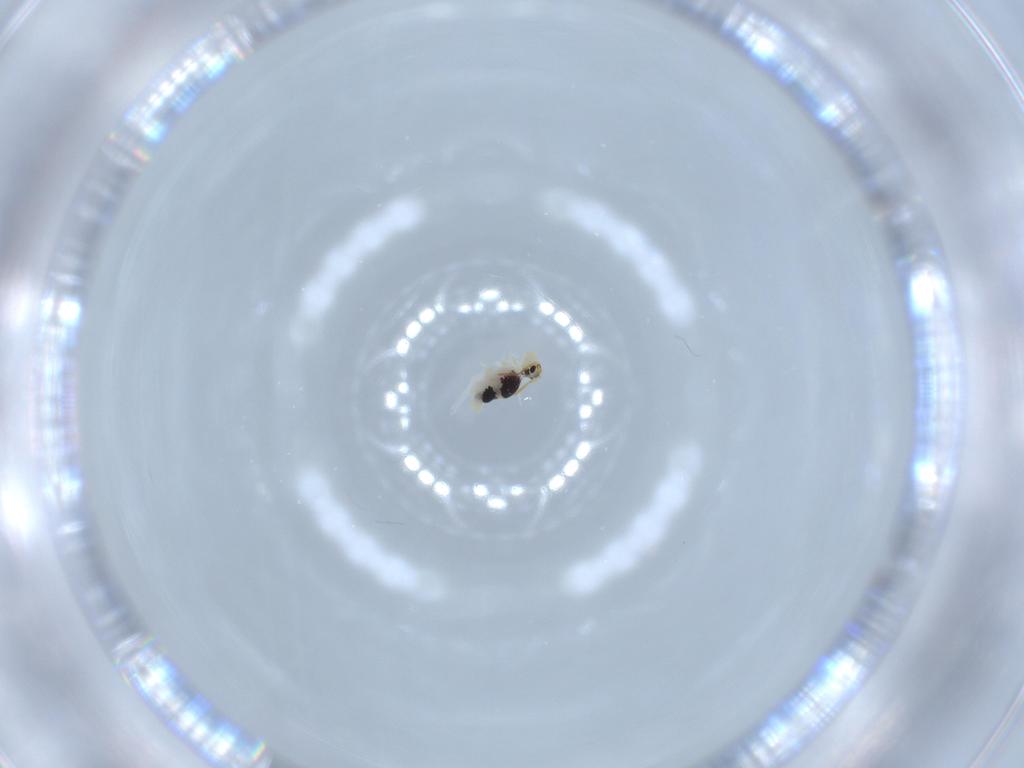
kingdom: Animalia
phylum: Arthropoda
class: Collembola
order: Symphypleona
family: Bourletiellidae
